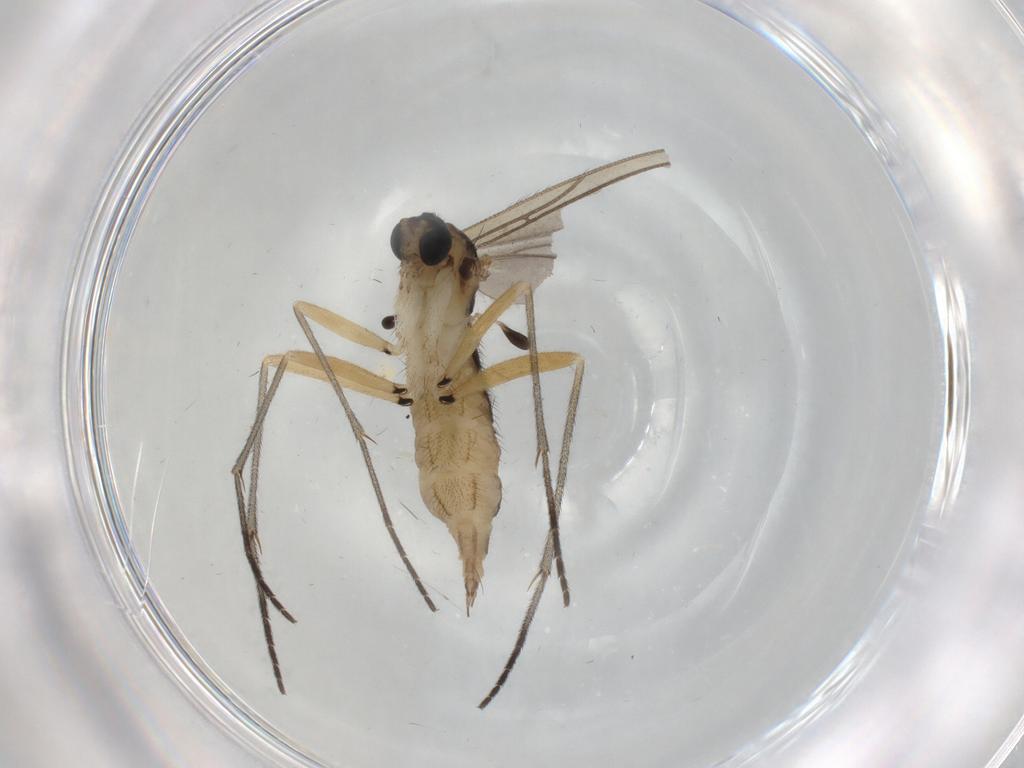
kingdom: Animalia
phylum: Arthropoda
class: Insecta
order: Diptera
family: Sciaridae
